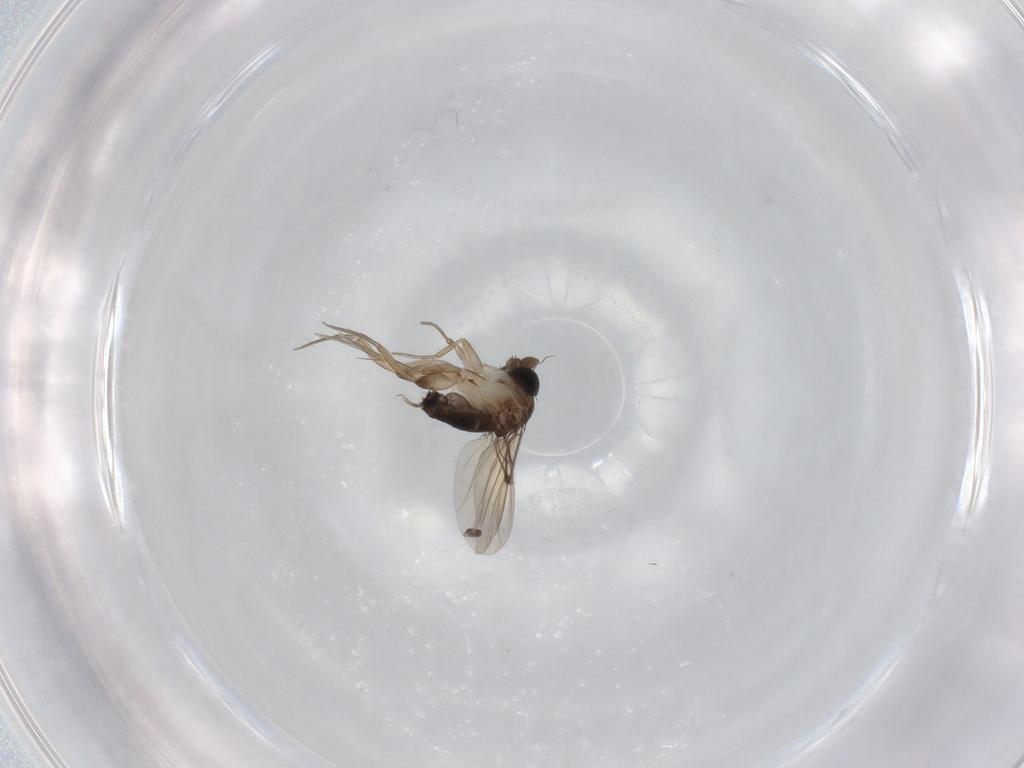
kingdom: Animalia
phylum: Arthropoda
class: Insecta
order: Diptera
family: Phoridae
